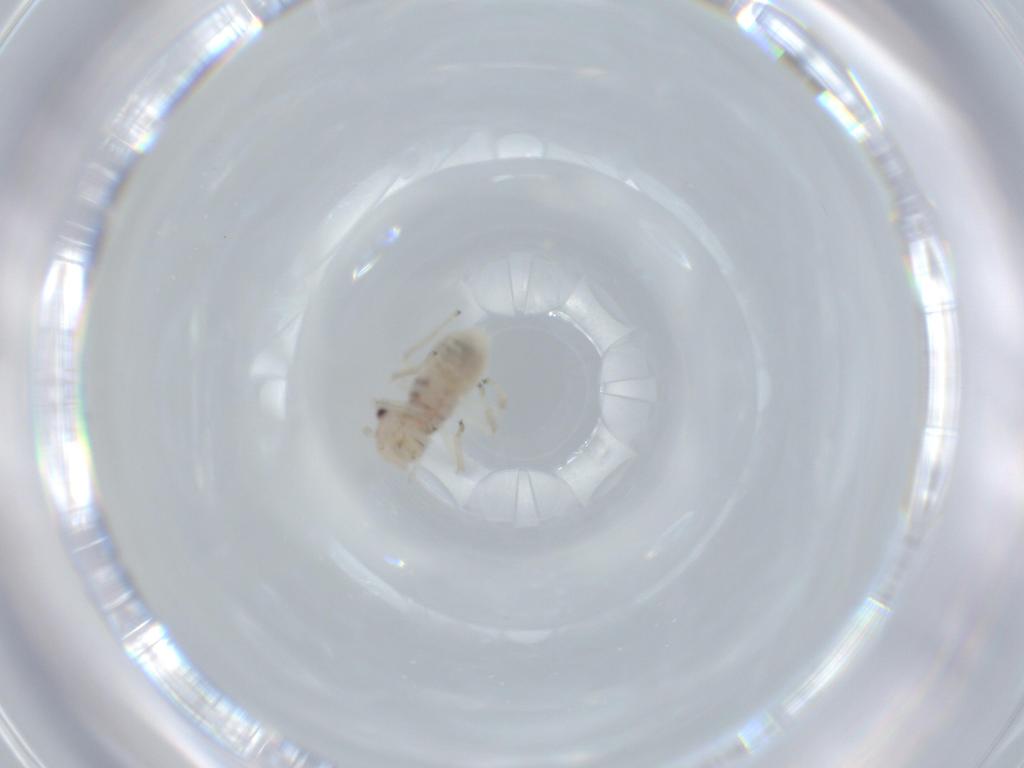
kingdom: Animalia
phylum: Arthropoda
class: Insecta
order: Psocodea
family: Amphipsocidae
